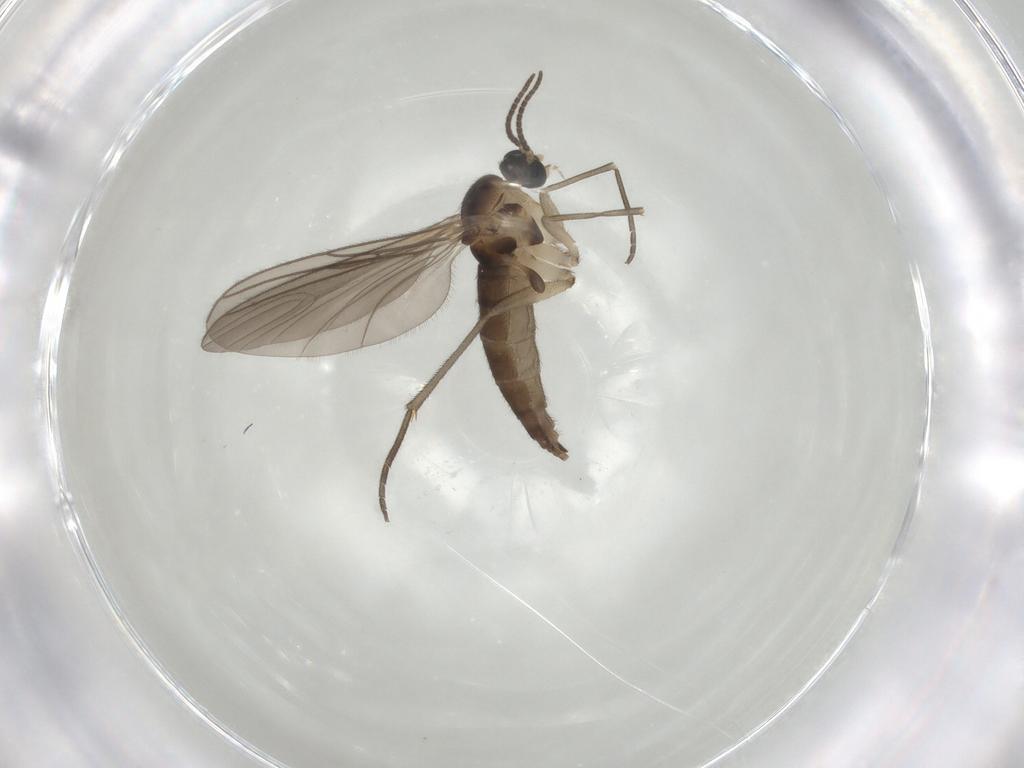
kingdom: Animalia
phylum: Arthropoda
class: Insecta
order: Diptera
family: Sciaridae
